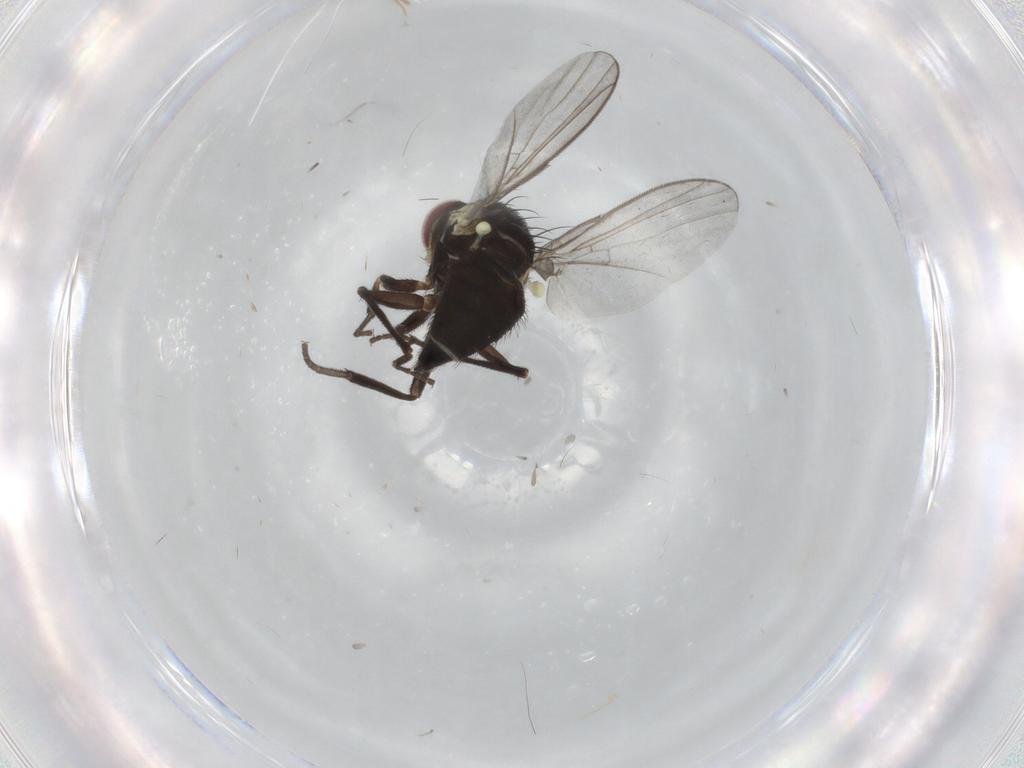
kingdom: Animalia
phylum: Arthropoda
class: Insecta
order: Diptera
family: Agromyzidae
